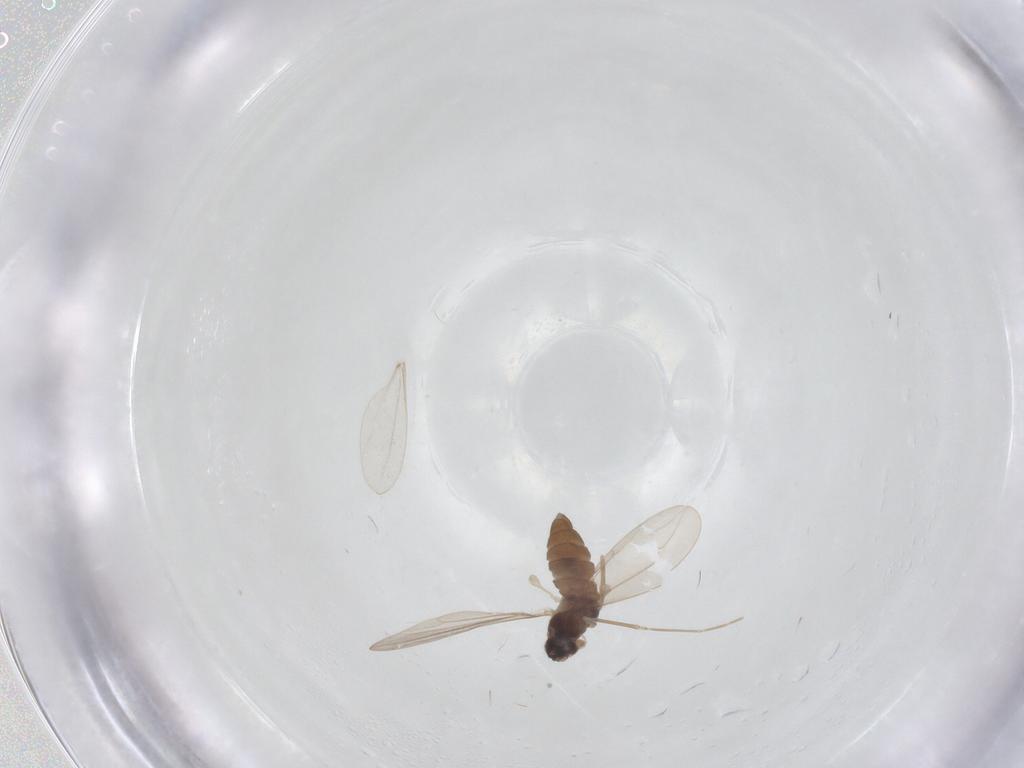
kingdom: Animalia
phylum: Arthropoda
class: Insecta
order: Diptera
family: Cecidomyiidae
